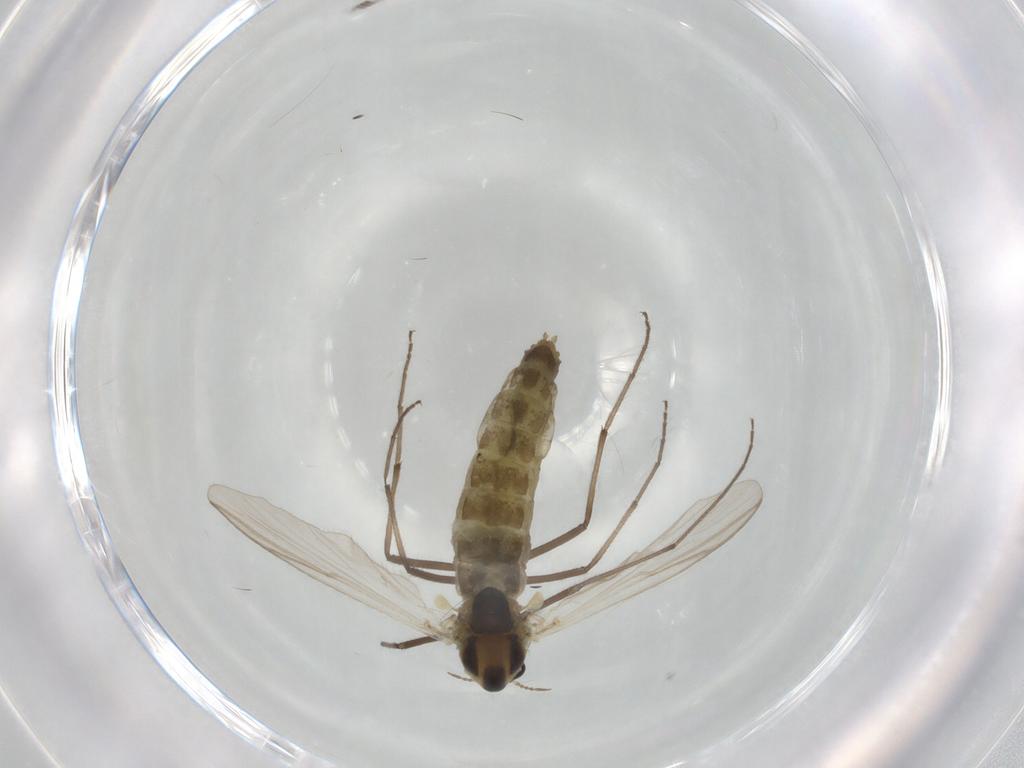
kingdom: Animalia
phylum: Arthropoda
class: Insecta
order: Diptera
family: Chironomidae
